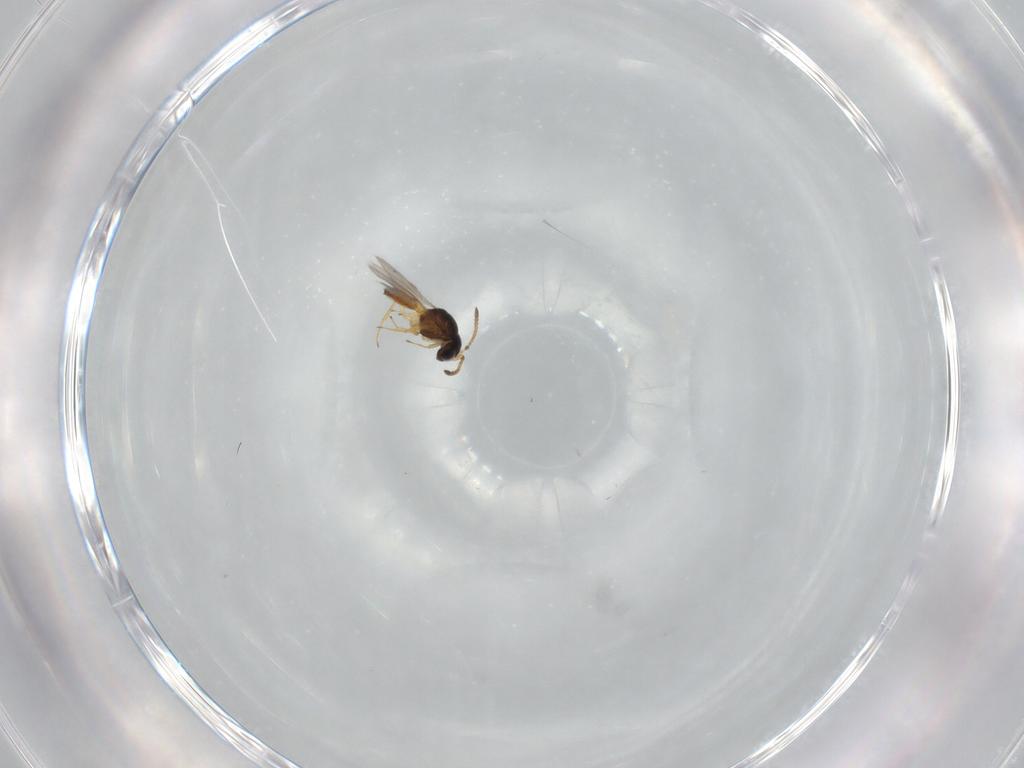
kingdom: Animalia
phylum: Arthropoda
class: Insecta
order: Hymenoptera
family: Scelionidae
